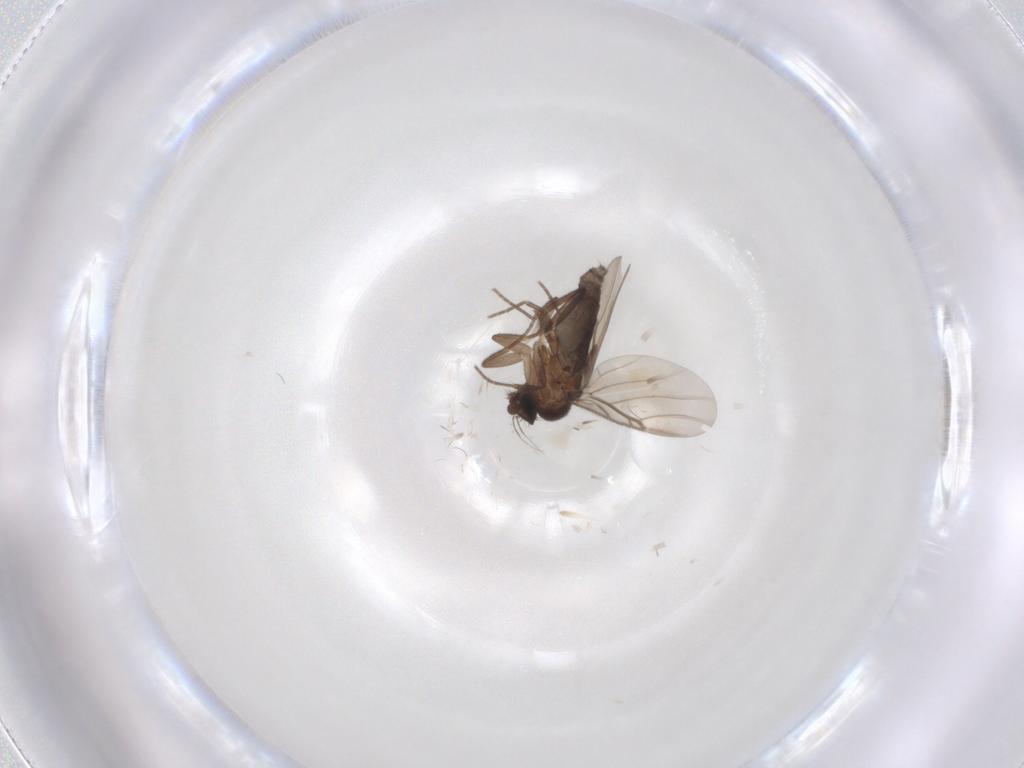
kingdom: Animalia
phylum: Arthropoda
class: Insecta
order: Diptera
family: Phoridae
